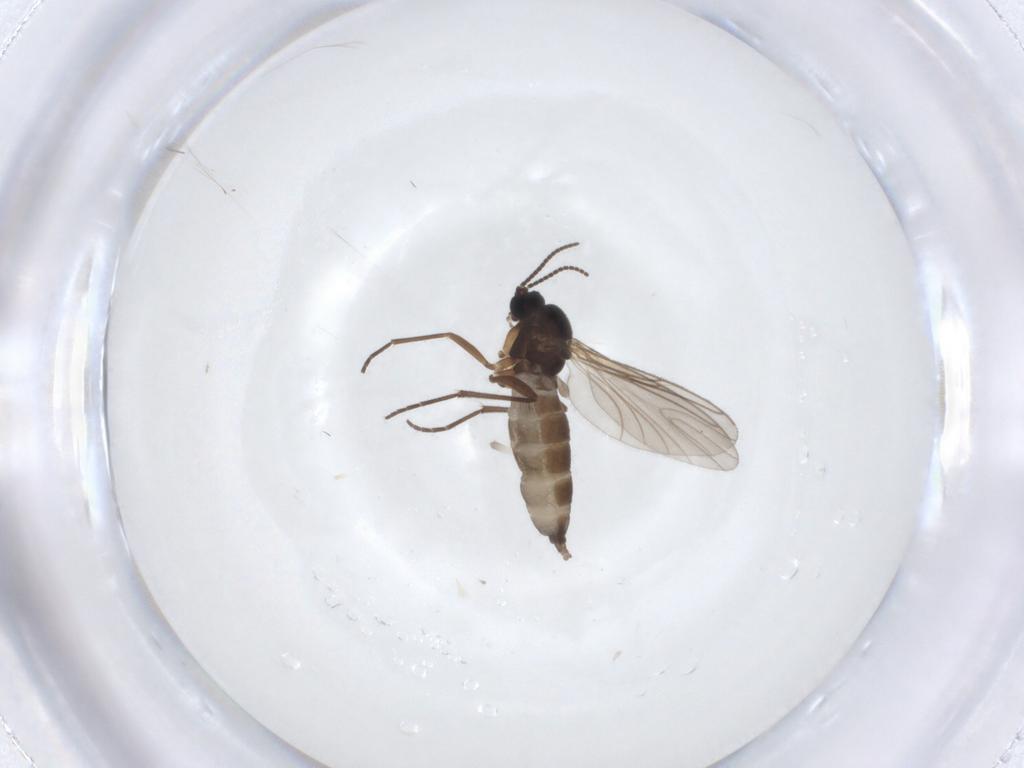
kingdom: Animalia
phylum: Arthropoda
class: Insecta
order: Diptera
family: Sciaridae
